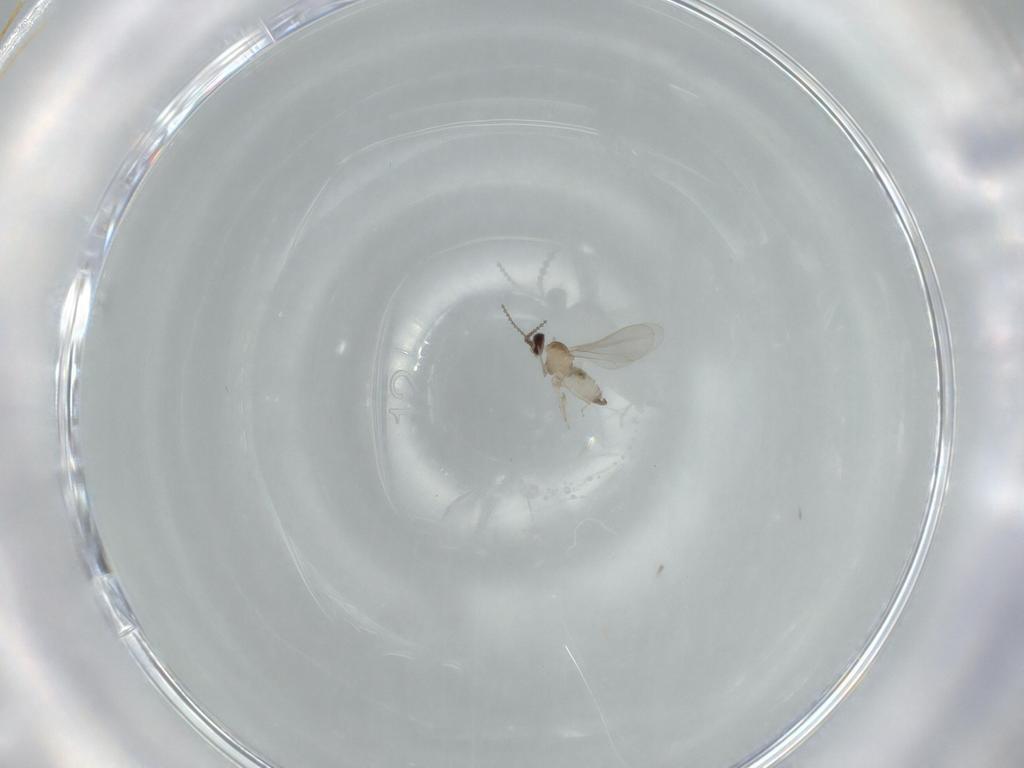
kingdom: Animalia
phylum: Arthropoda
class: Insecta
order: Diptera
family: Cecidomyiidae
